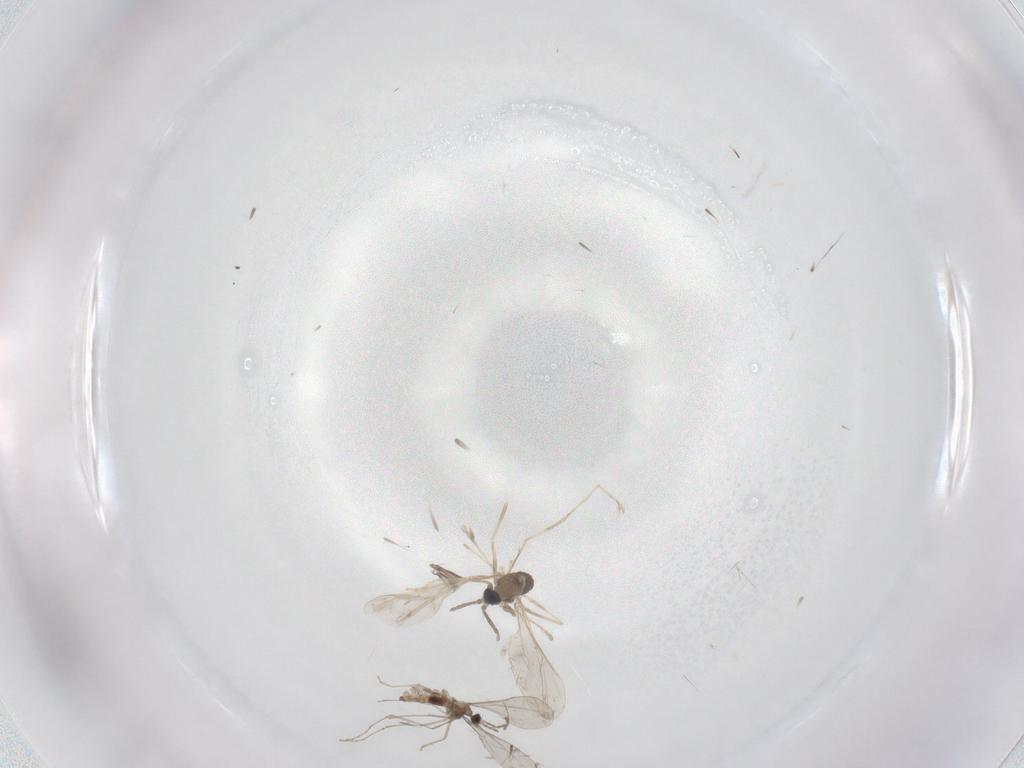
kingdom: Animalia
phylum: Arthropoda
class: Insecta
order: Diptera
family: Cecidomyiidae
